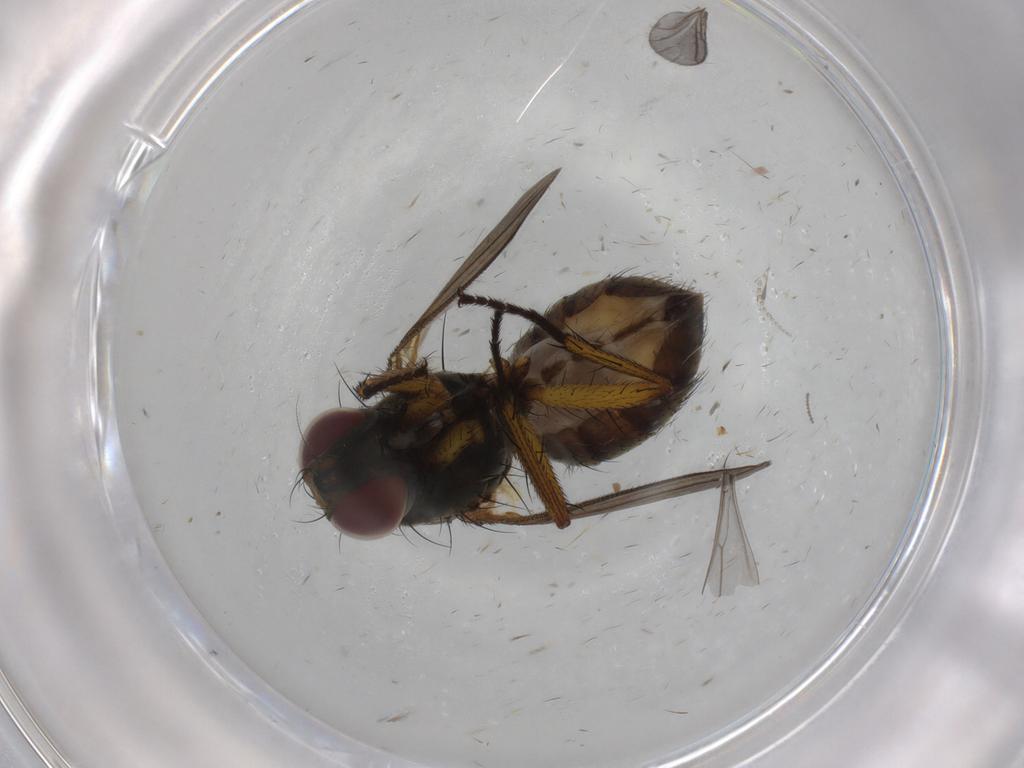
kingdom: Animalia
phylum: Arthropoda
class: Insecta
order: Diptera
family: Muscidae
